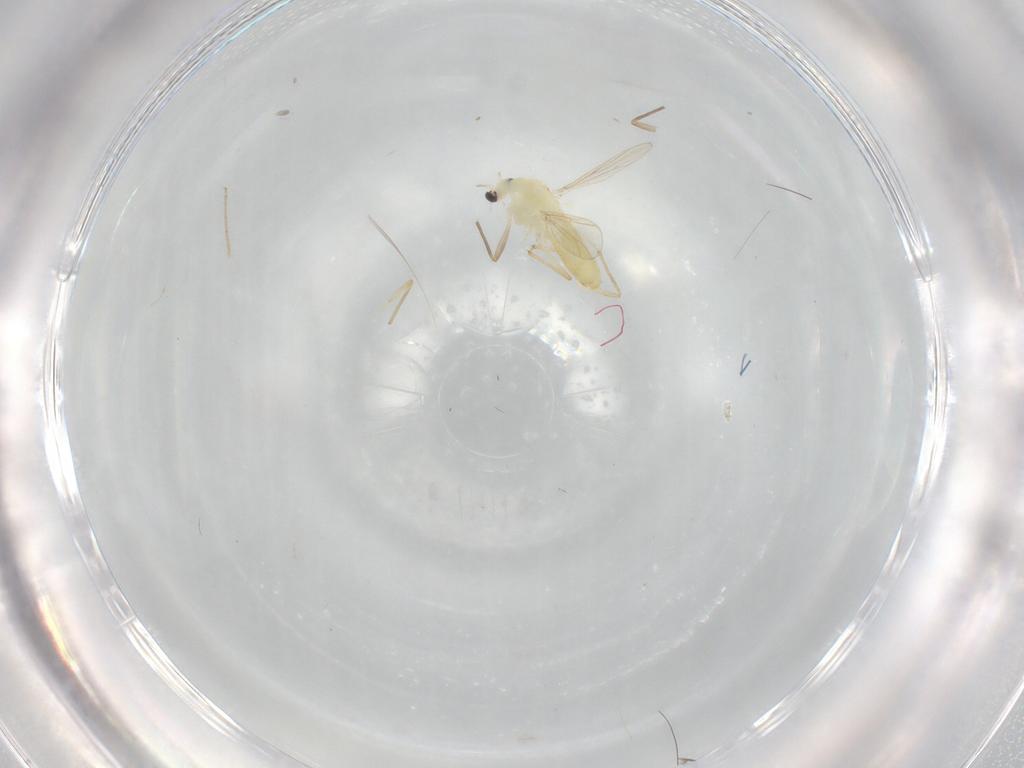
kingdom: Animalia
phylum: Arthropoda
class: Insecta
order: Diptera
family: Chironomidae
